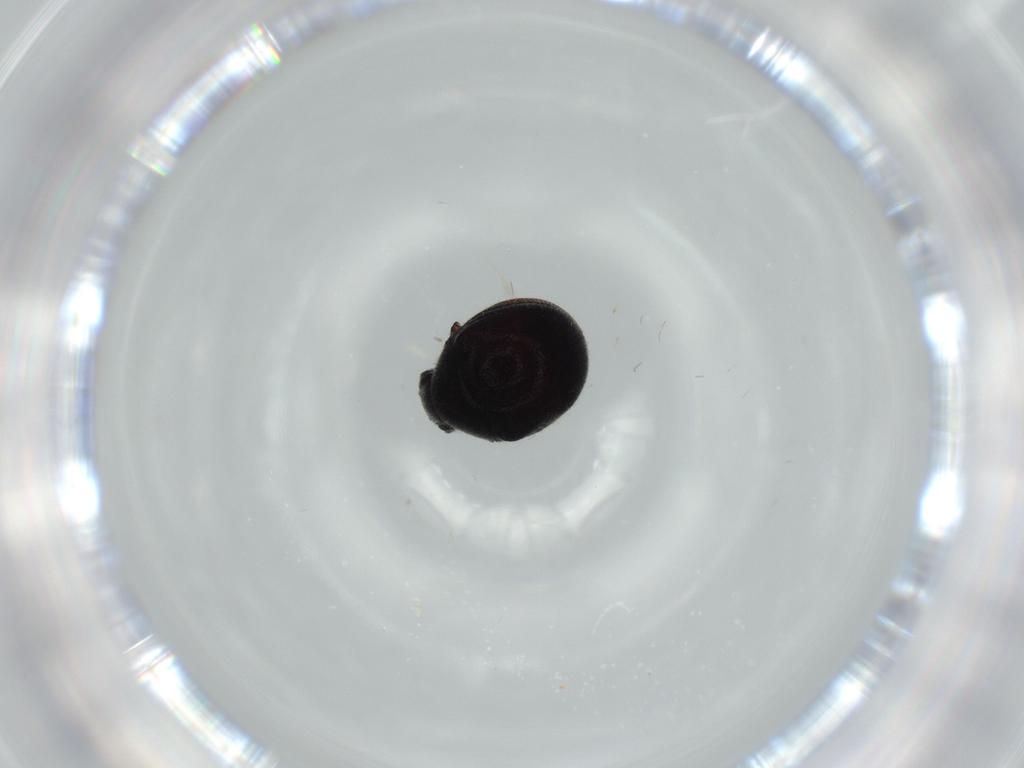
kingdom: Animalia
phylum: Arthropoda
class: Insecta
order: Coleoptera
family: Ptinidae
